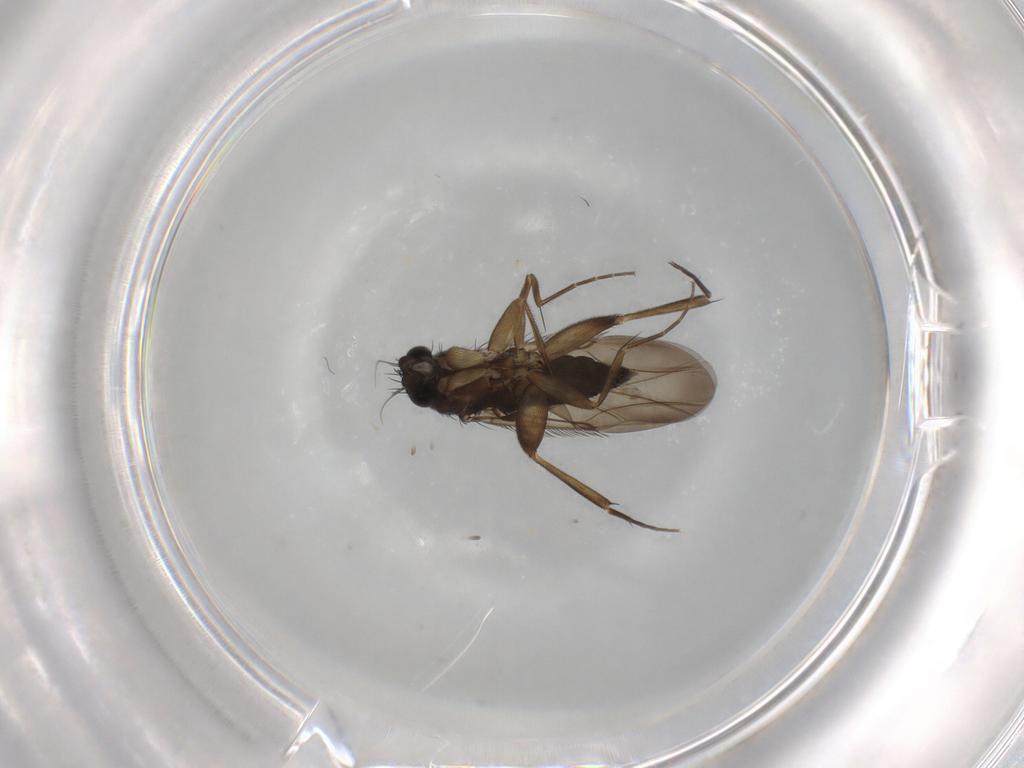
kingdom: Animalia
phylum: Arthropoda
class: Insecta
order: Diptera
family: Phoridae
